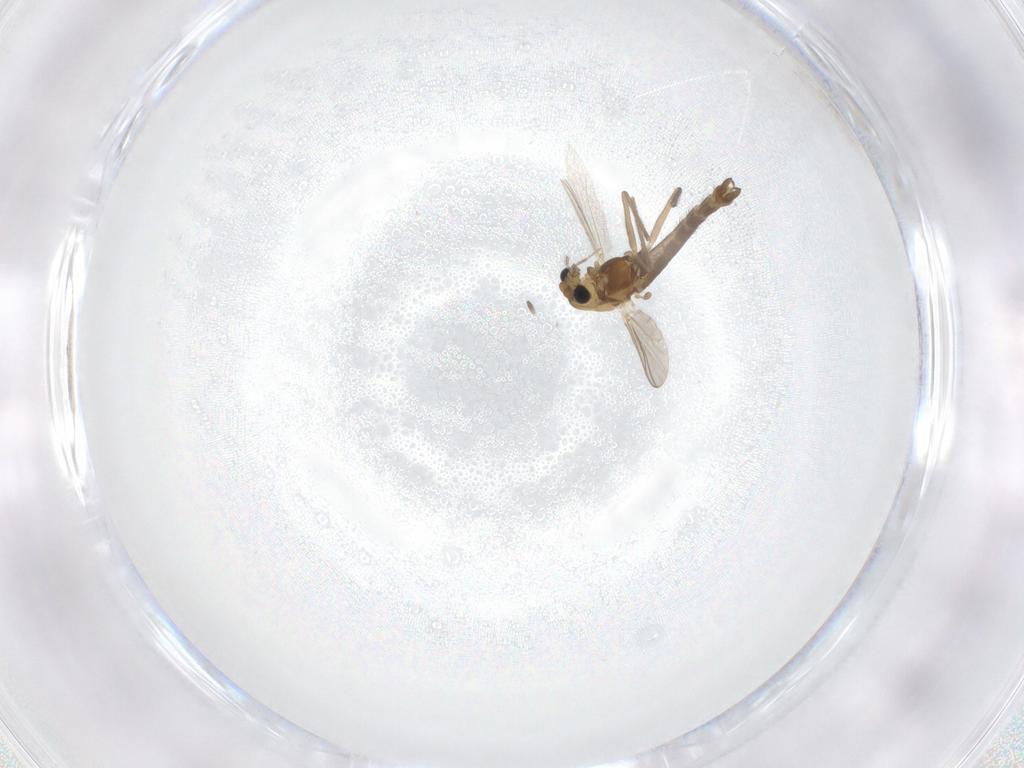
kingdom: Animalia
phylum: Arthropoda
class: Insecta
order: Diptera
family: Chironomidae
